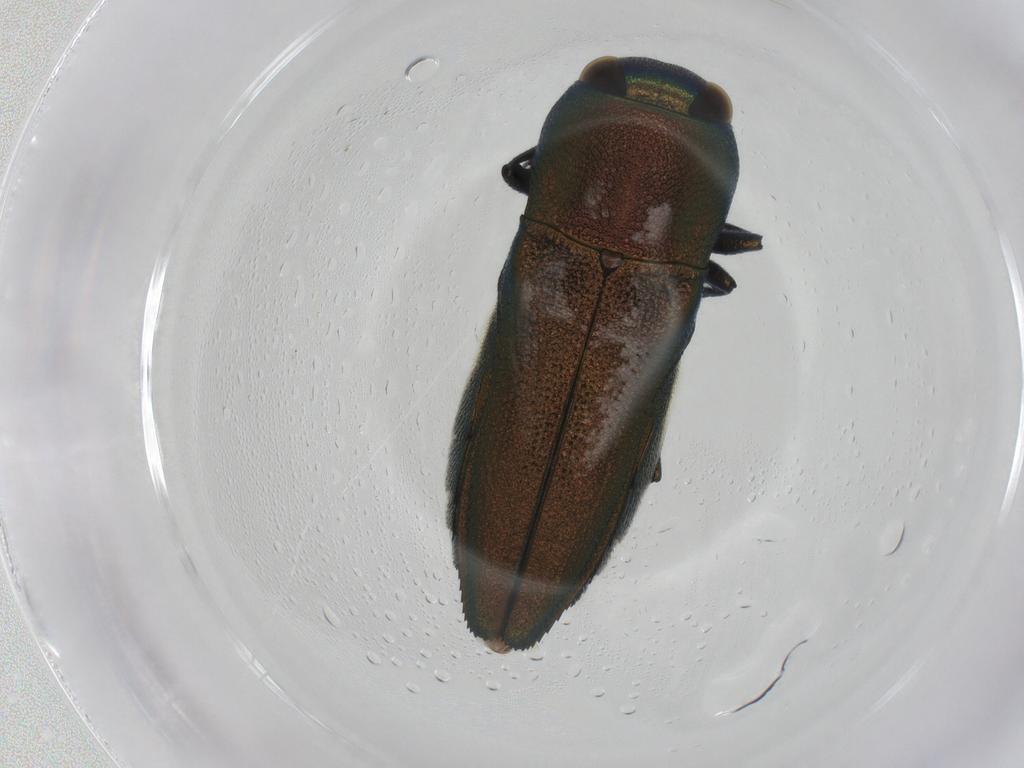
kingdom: Animalia
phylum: Arthropoda
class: Insecta
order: Coleoptera
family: Buprestidae
